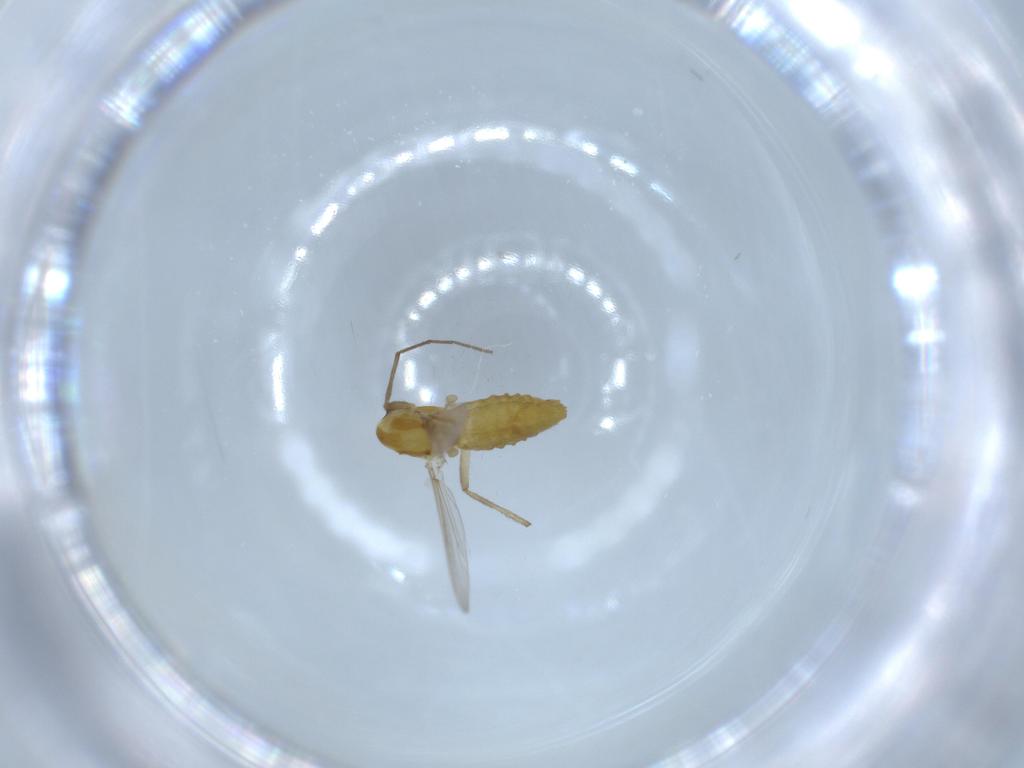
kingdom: Animalia
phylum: Arthropoda
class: Insecta
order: Diptera
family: Chironomidae
